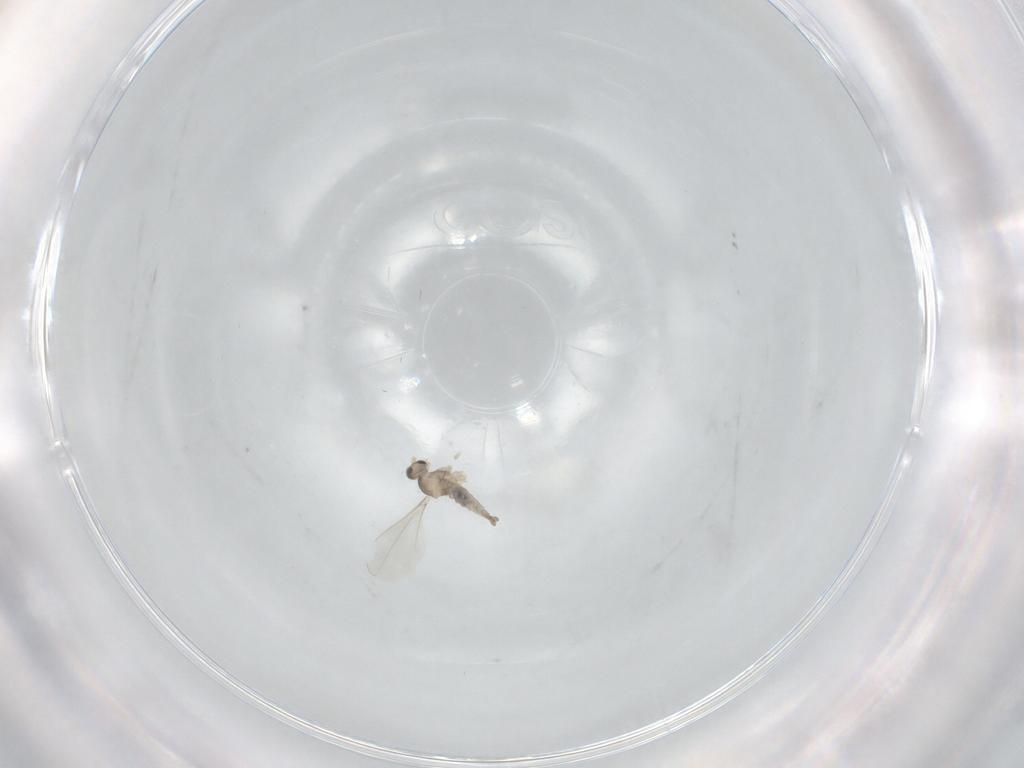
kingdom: Animalia
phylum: Arthropoda
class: Insecta
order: Diptera
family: Cecidomyiidae
